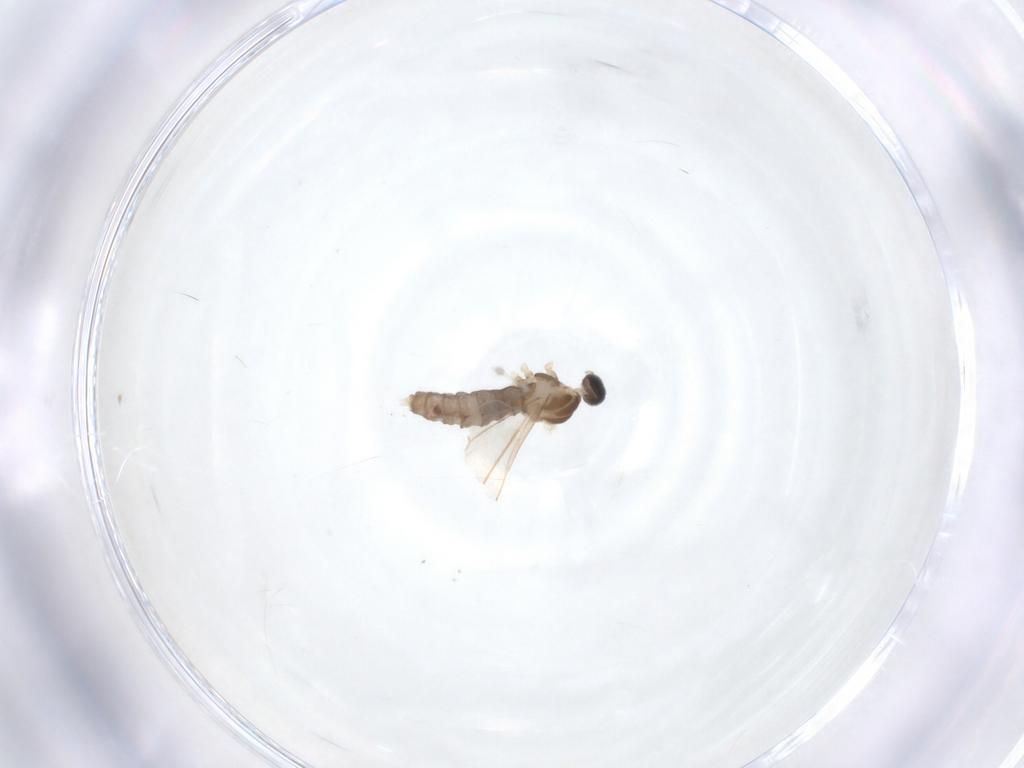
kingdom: Animalia
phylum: Arthropoda
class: Insecta
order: Diptera
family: Cecidomyiidae
